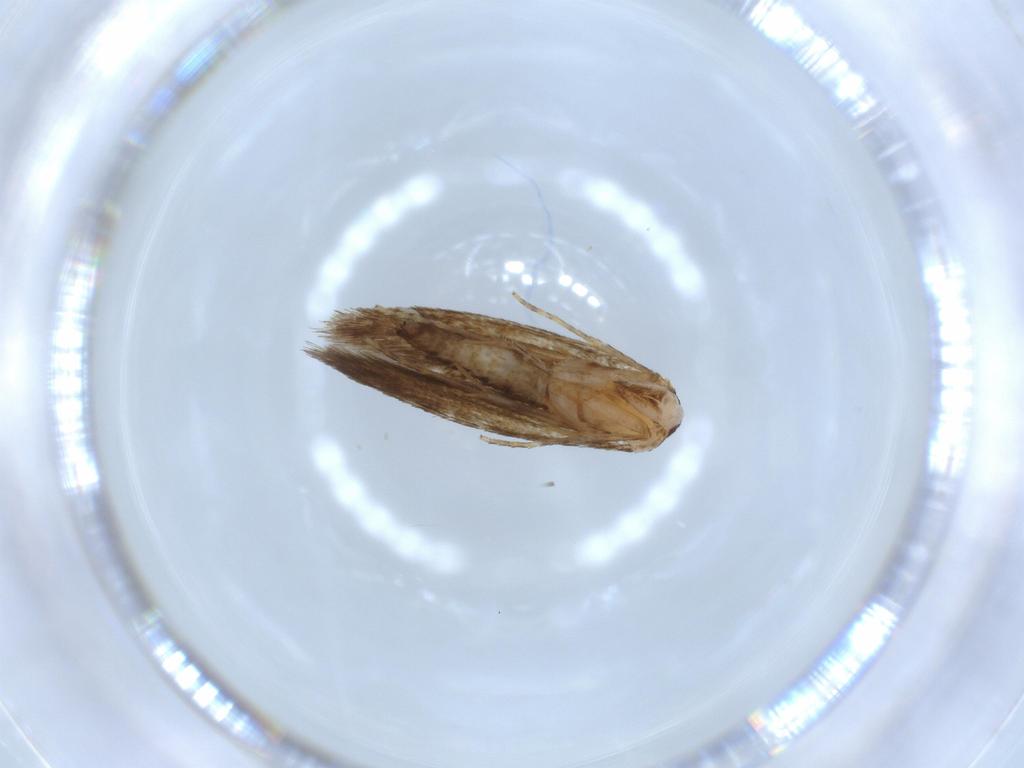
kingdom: Animalia
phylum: Arthropoda
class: Insecta
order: Lepidoptera
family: Tineidae
